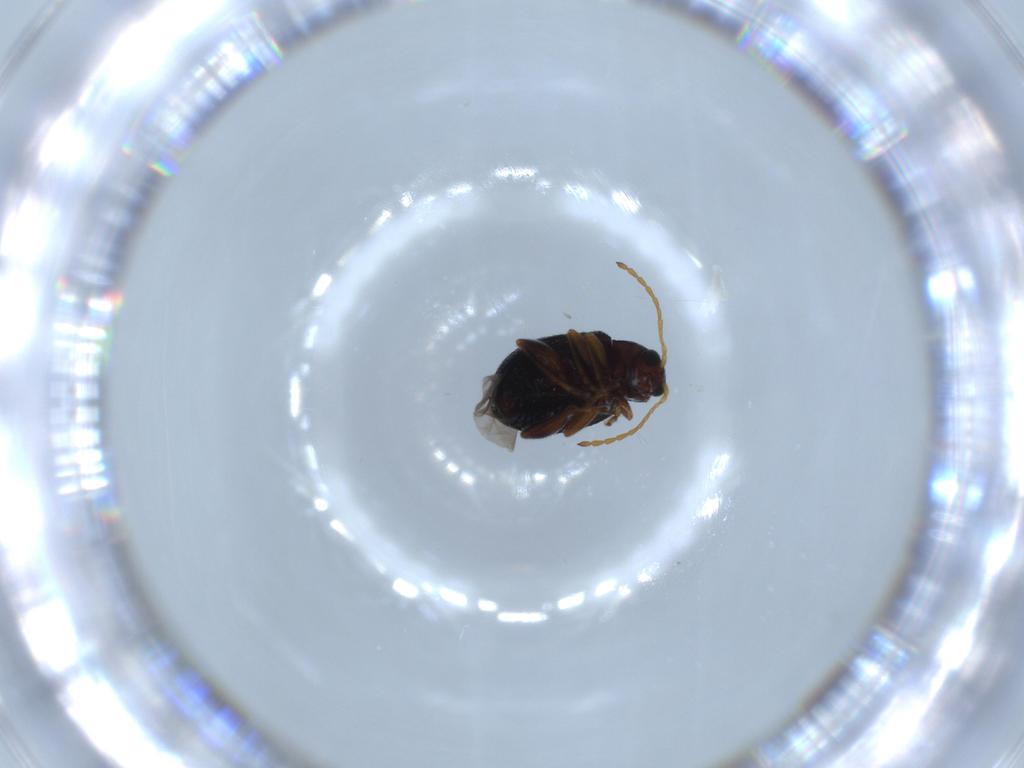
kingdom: Animalia
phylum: Arthropoda
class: Insecta
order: Coleoptera
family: Chrysomelidae
